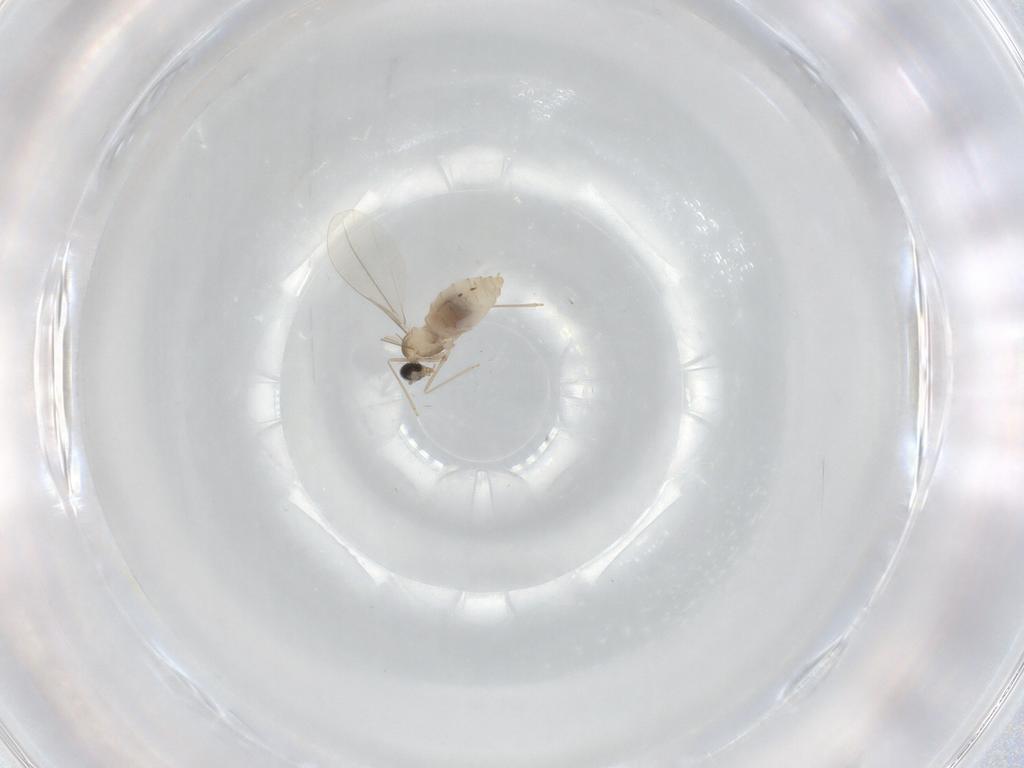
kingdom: Animalia
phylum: Arthropoda
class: Insecta
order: Diptera
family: Cecidomyiidae
